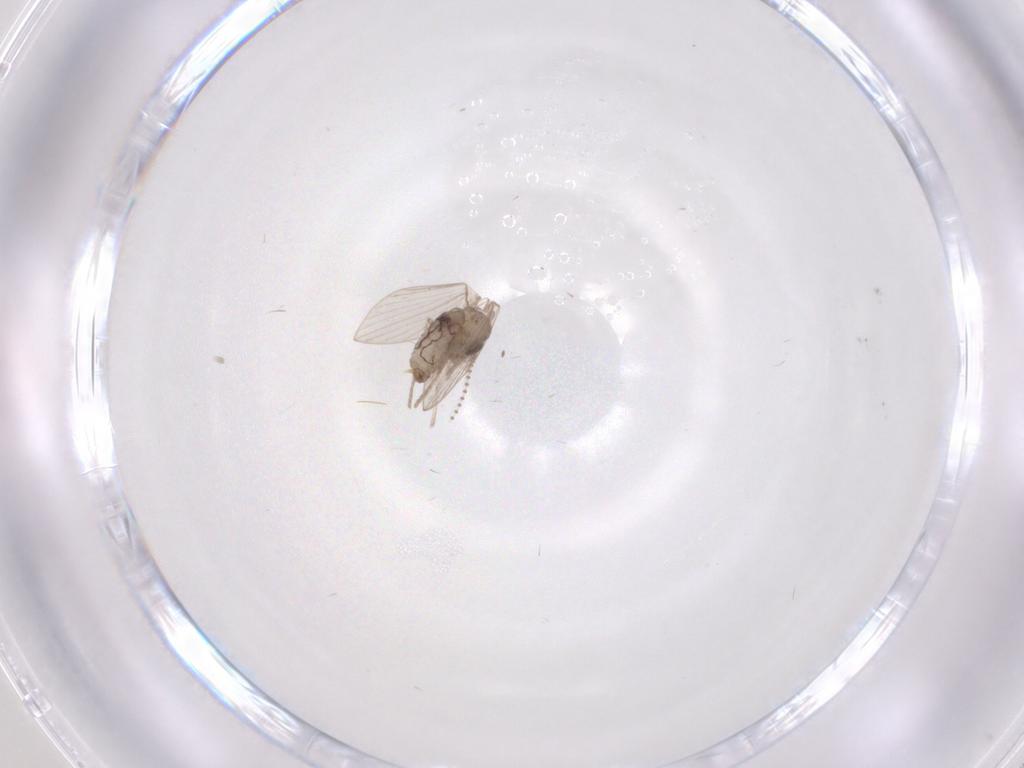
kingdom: Animalia
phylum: Arthropoda
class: Insecta
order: Diptera
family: Psychodidae
